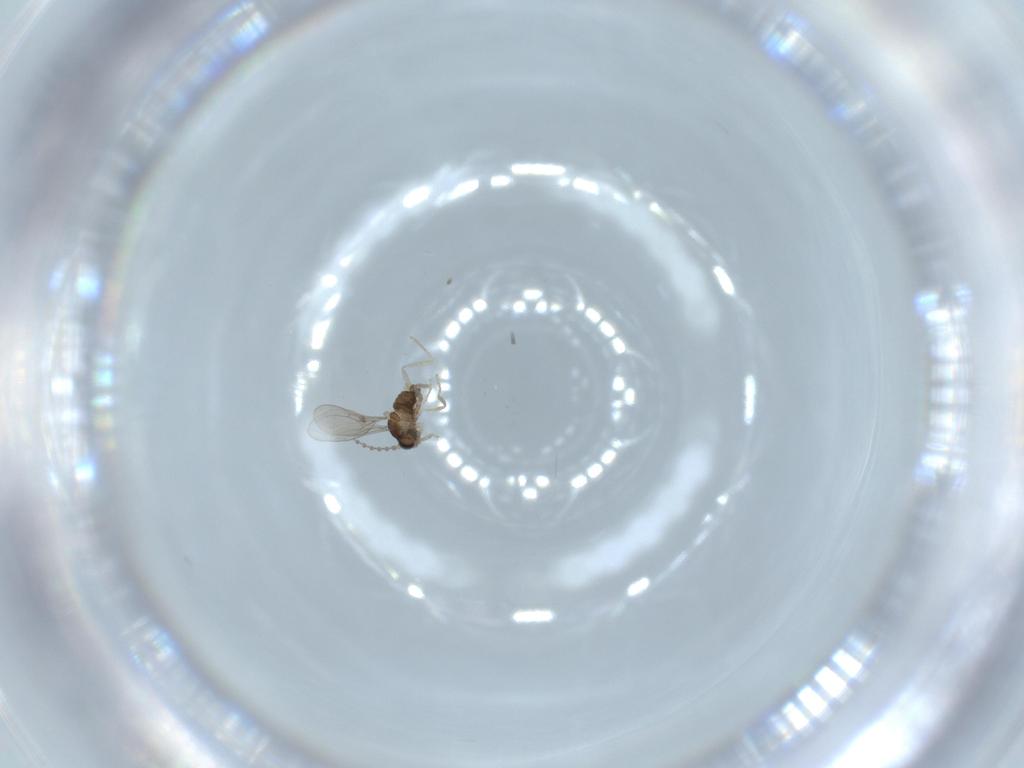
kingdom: Animalia
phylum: Arthropoda
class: Insecta
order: Diptera
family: Cecidomyiidae
